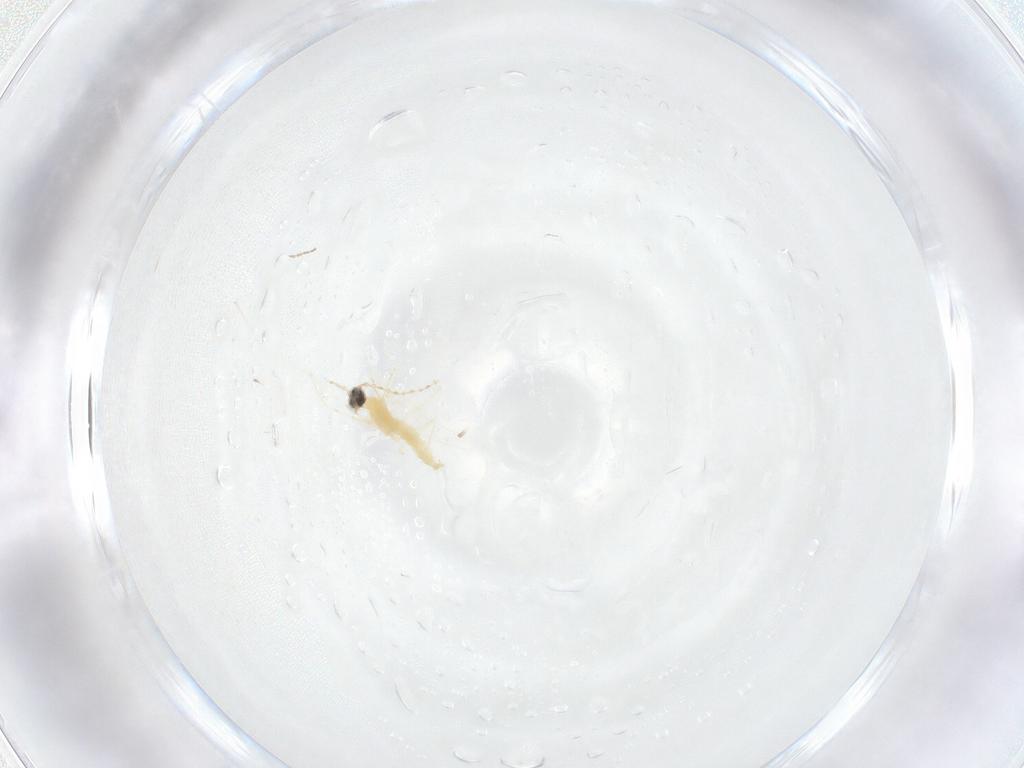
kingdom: Animalia
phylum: Arthropoda
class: Insecta
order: Diptera
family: Cecidomyiidae
